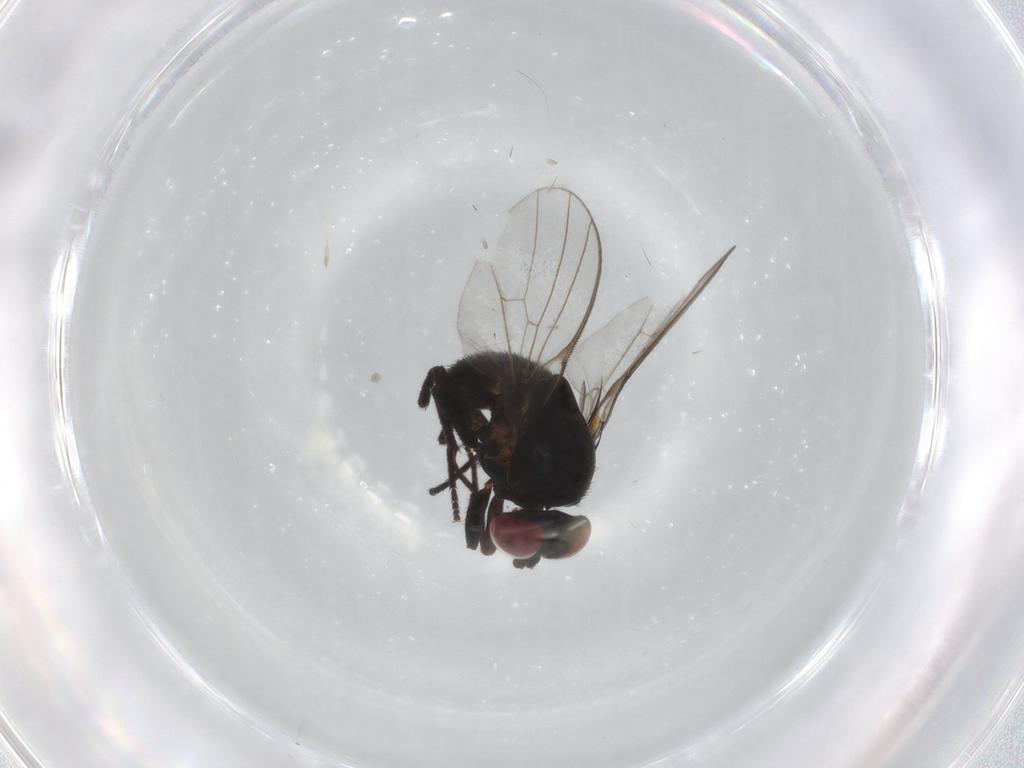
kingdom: Animalia
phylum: Arthropoda
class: Insecta
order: Diptera
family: Agromyzidae
